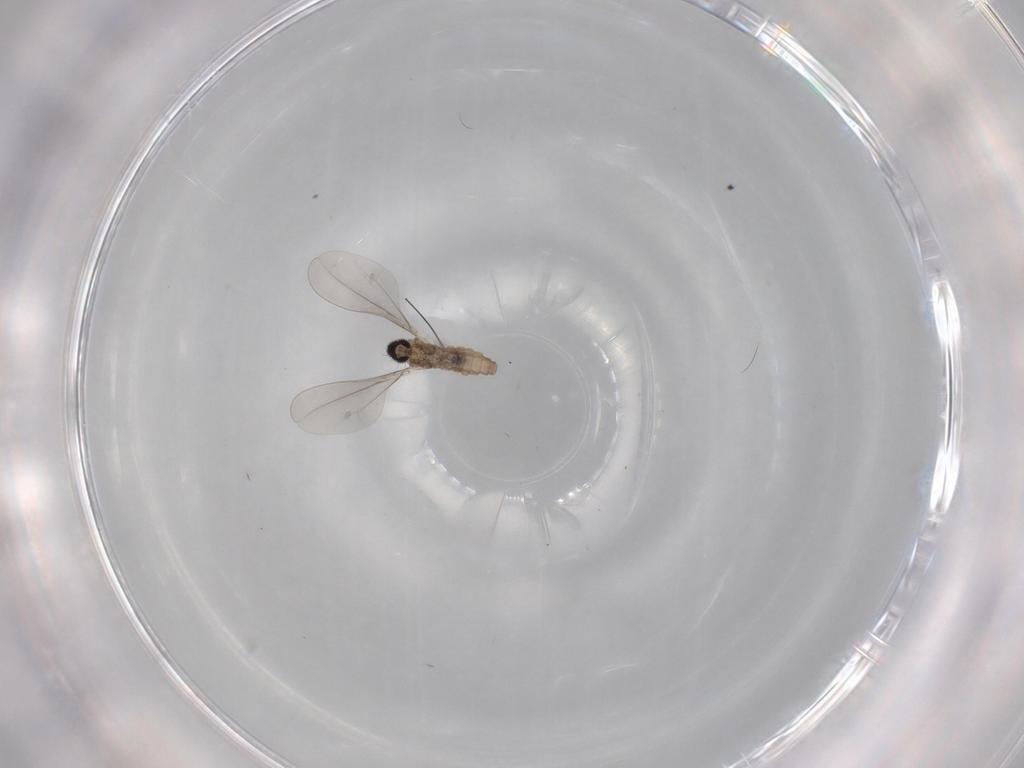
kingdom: Animalia
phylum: Arthropoda
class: Insecta
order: Diptera
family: Cecidomyiidae
